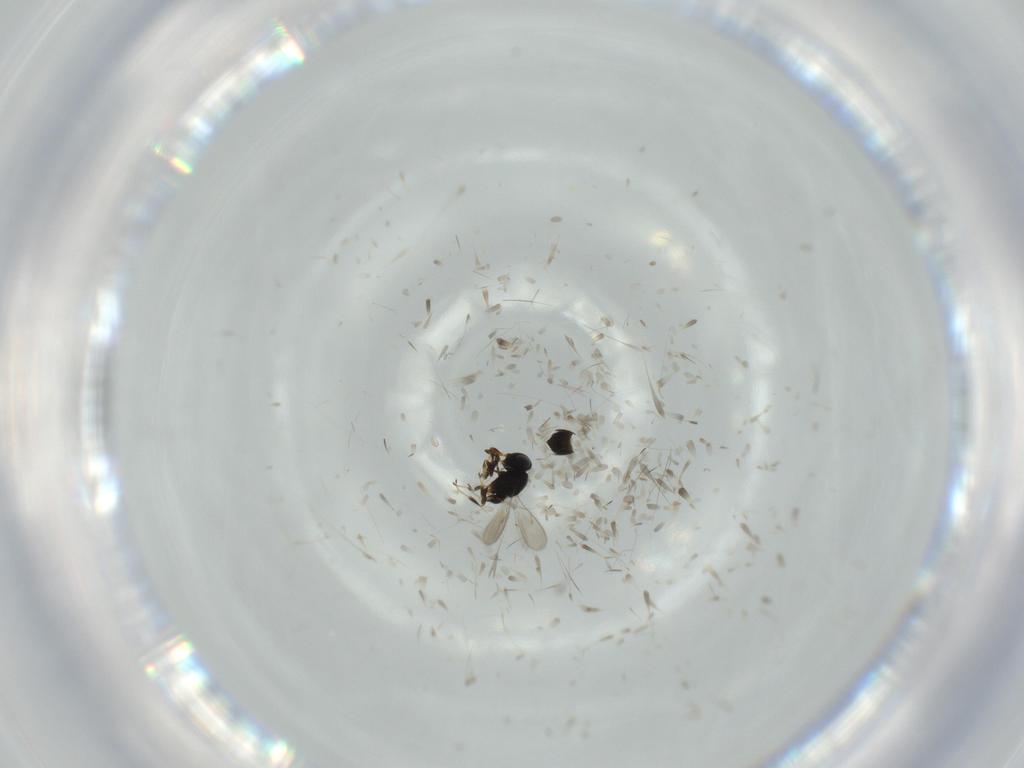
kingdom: Animalia
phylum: Arthropoda
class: Insecta
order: Hymenoptera
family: Scelionidae
